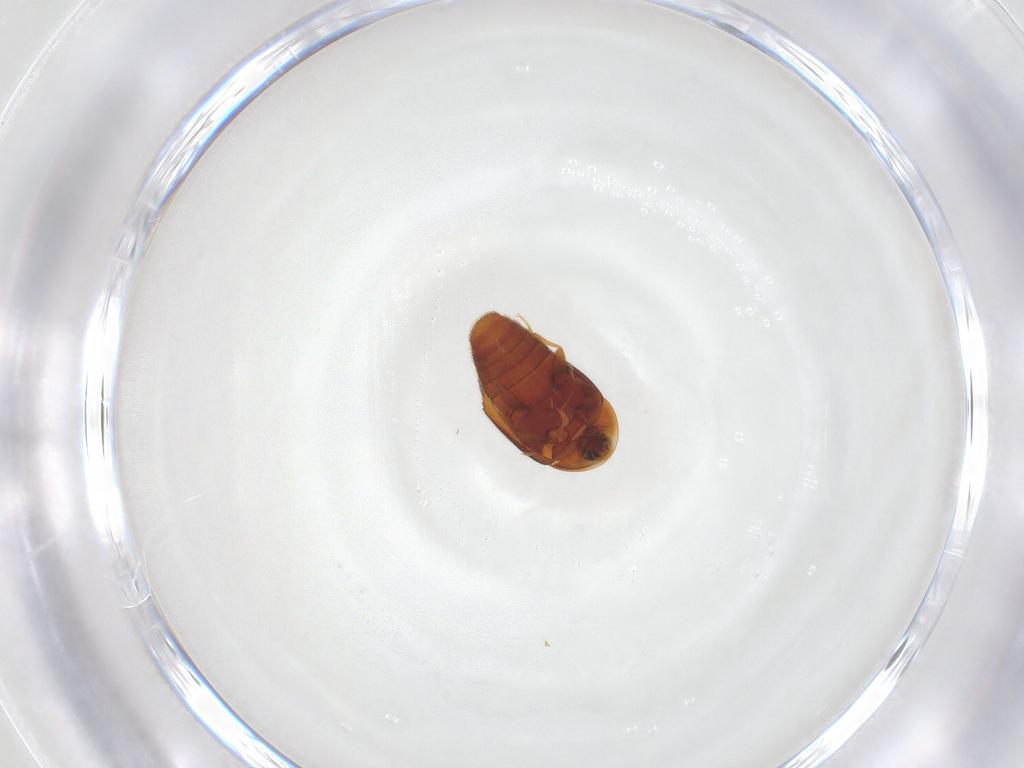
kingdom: Animalia
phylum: Arthropoda
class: Insecta
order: Coleoptera
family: Corylophidae
